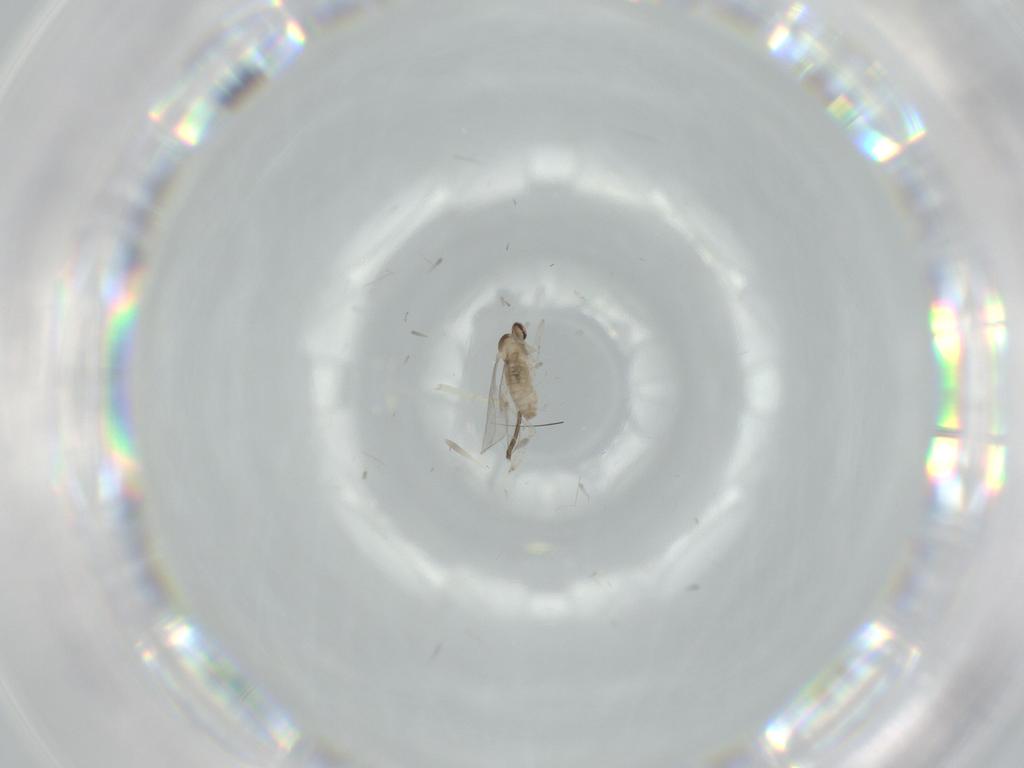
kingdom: Animalia
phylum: Arthropoda
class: Insecta
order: Diptera
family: Cecidomyiidae
